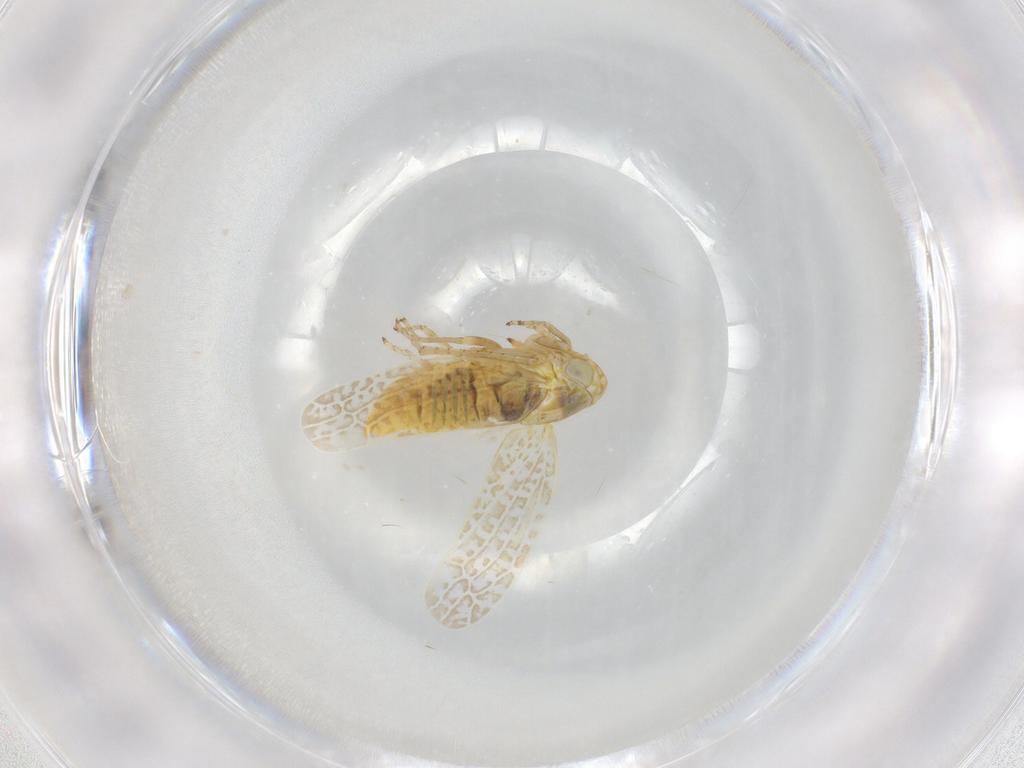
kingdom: Animalia
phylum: Arthropoda
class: Insecta
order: Hemiptera
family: Cicadellidae
